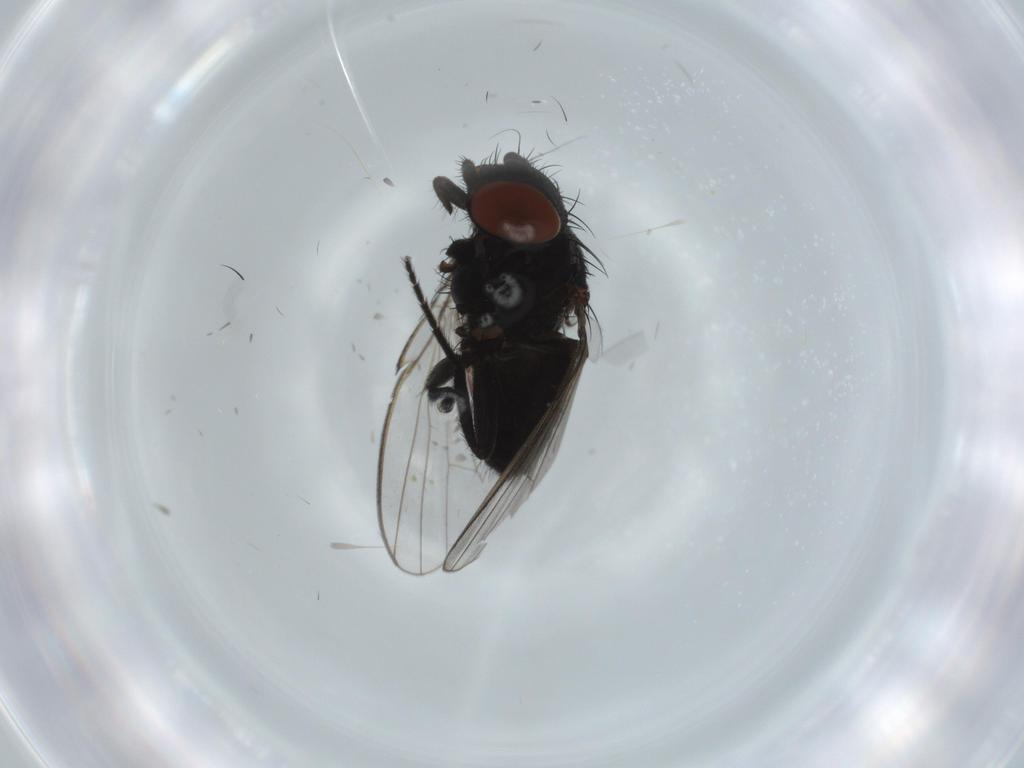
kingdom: Animalia
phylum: Arthropoda
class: Insecta
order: Diptera
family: Milichiidae
